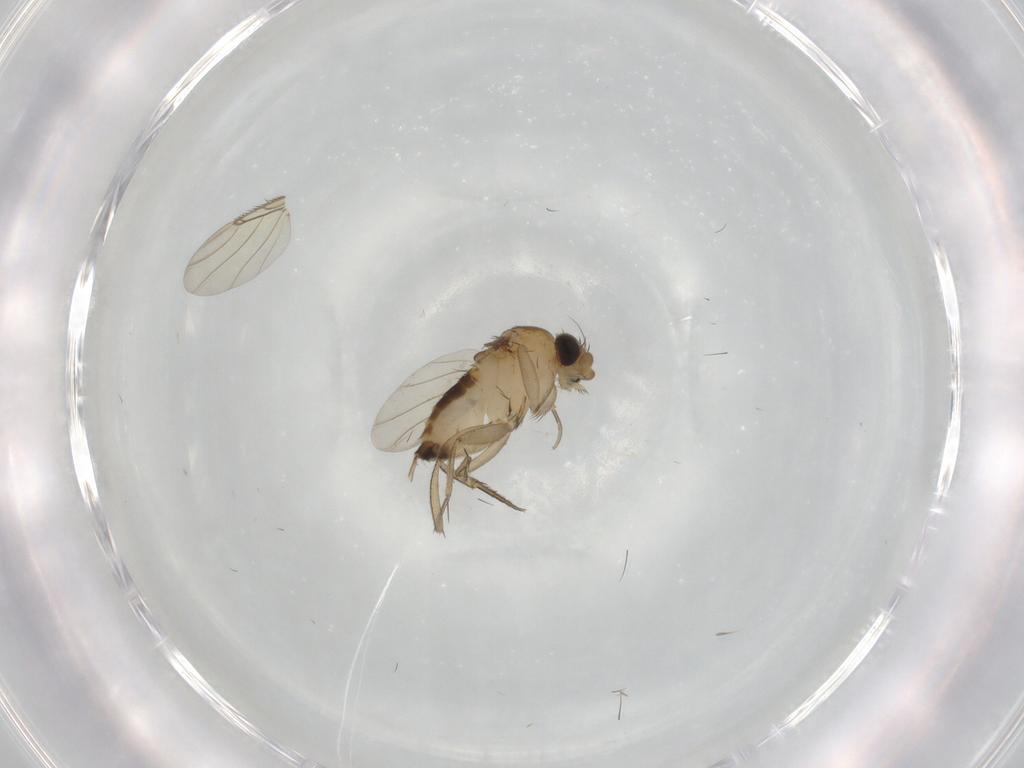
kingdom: Animalia
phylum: Arthropoda
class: Insecta
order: Diptera
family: Phoridae
